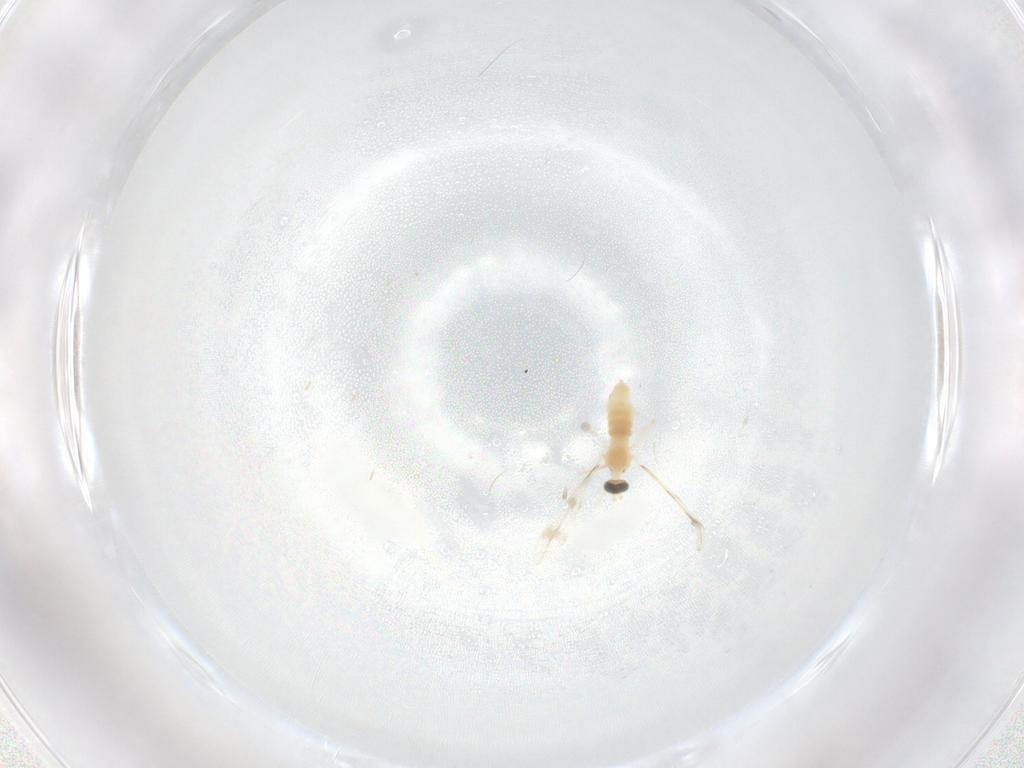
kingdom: Animalia
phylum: Arthropoda
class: Insecta
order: Diptera
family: Cecidomyiidae
